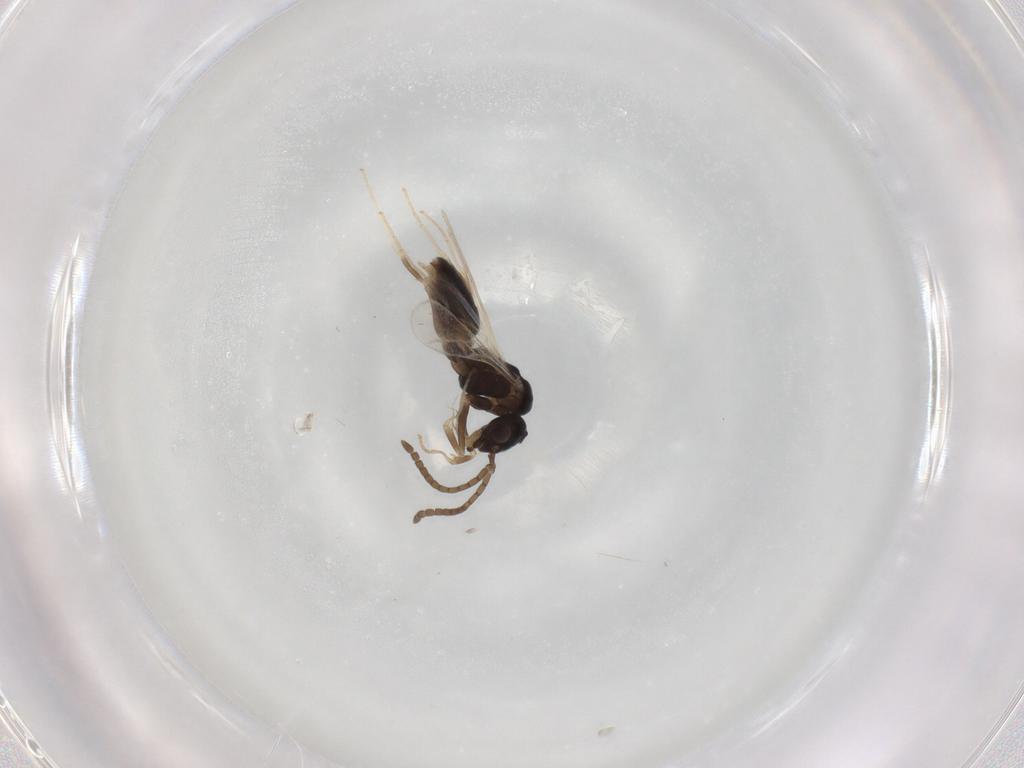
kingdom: Animalia
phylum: Arthropoda
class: Insecta
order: Hymenoptera
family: Formicidae
